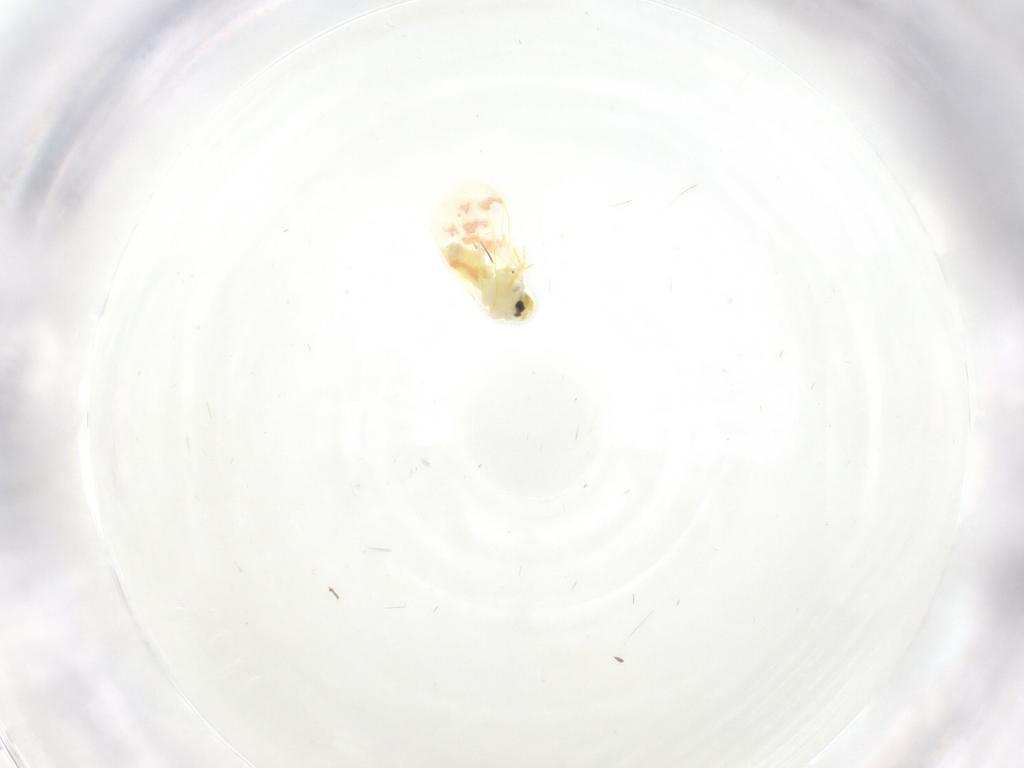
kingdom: Animalia
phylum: Arthropoda
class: Insecta
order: Hemiptera
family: Aleyrodidae
